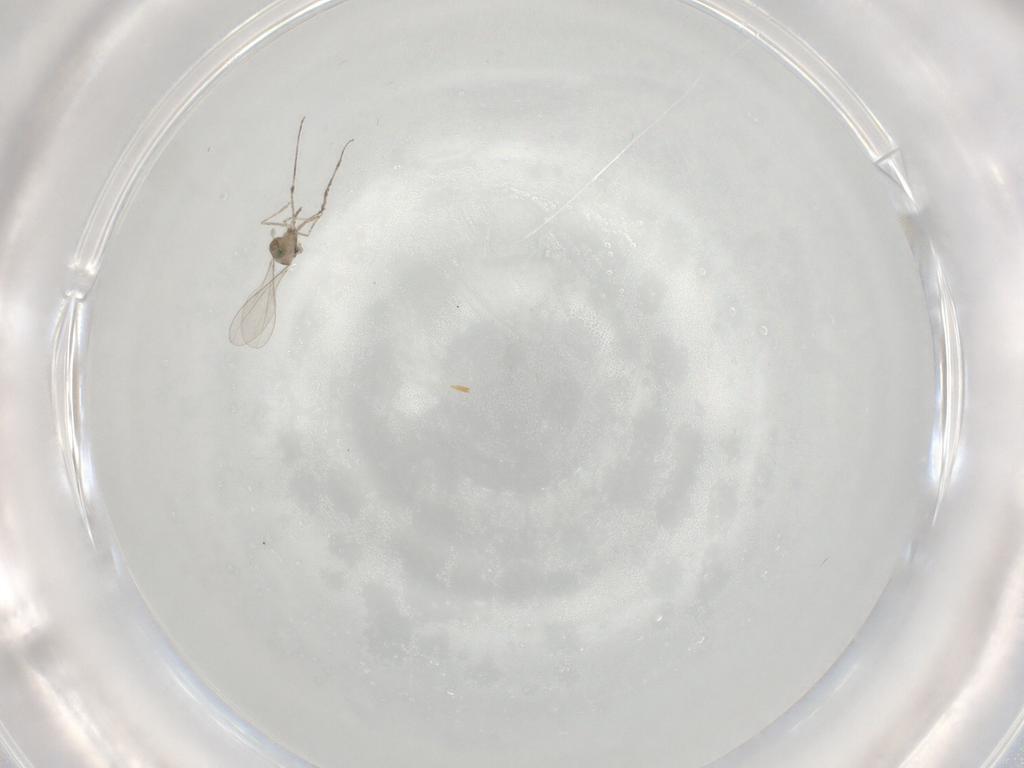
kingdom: Animalia
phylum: Arthropoda
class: Insecta
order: Diptera
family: Cecidomyiidae
